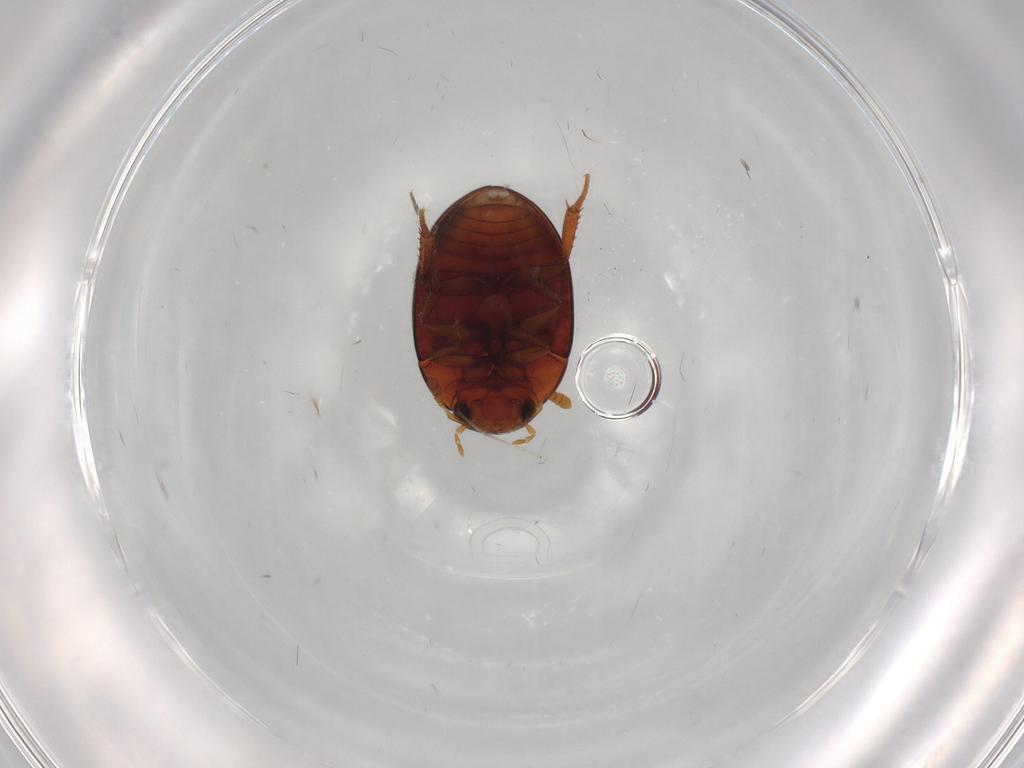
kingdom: Animalia
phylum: Arthropoda
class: Insecta
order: Coleoptera
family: Hydrophilidae
